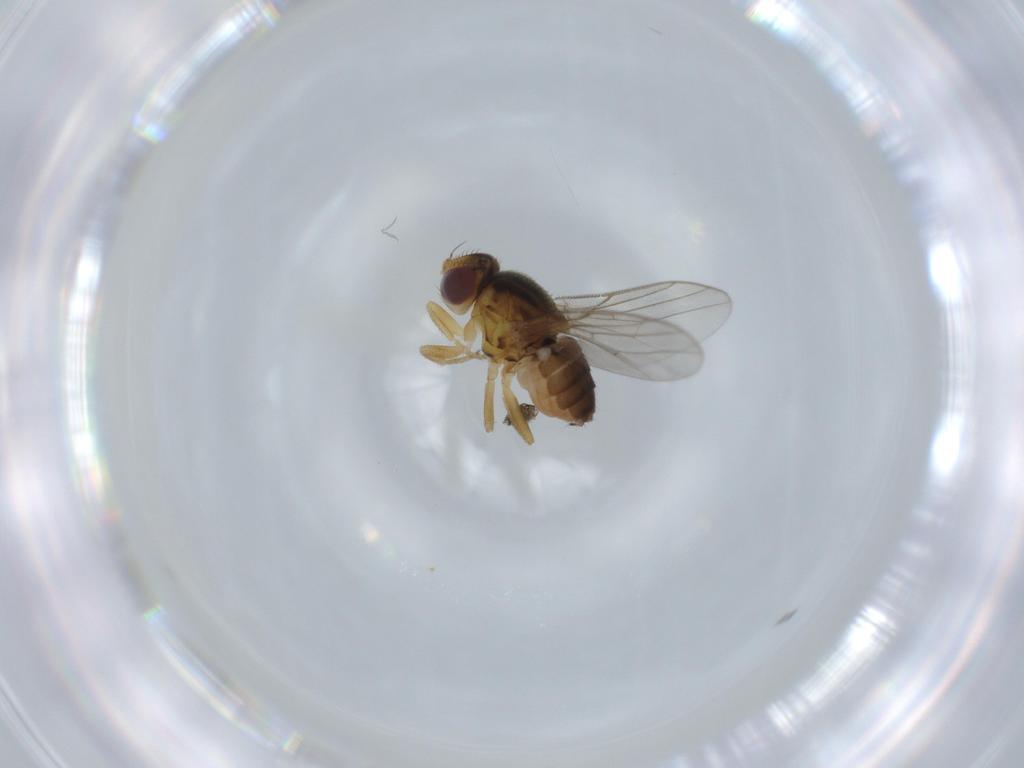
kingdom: Animalia
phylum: Arthropoda
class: Insecta
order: Diptera
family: Chloropidae
